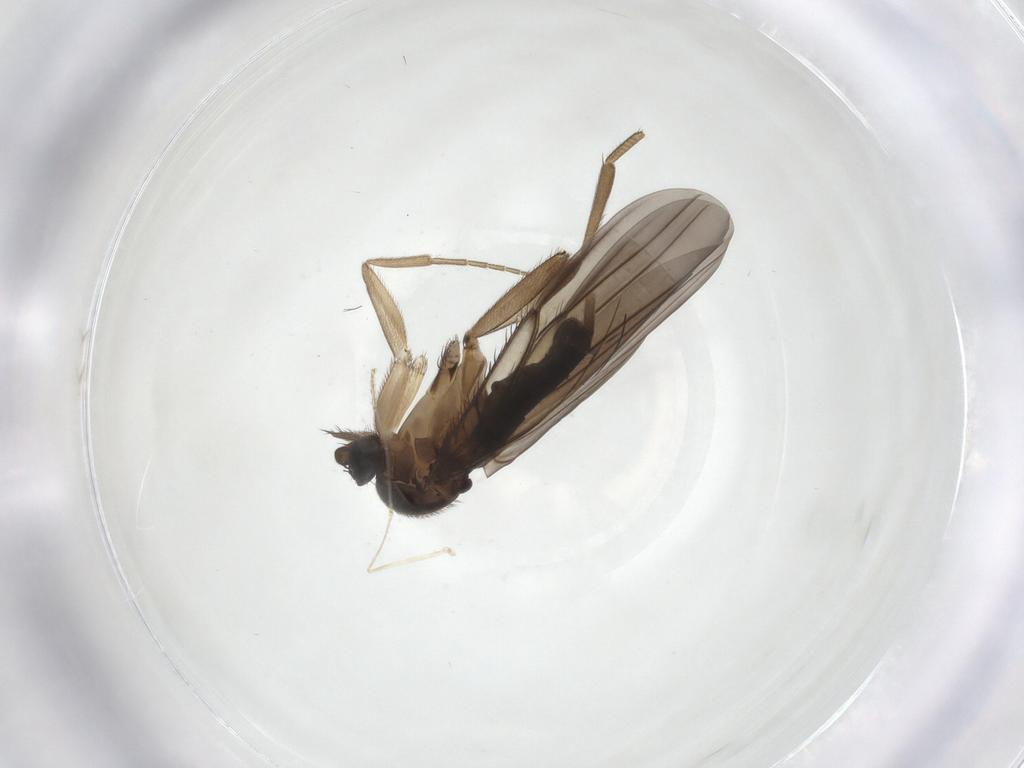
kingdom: Animalia
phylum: Arthropoda
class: Insecta
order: Diptera
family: Phoridae
